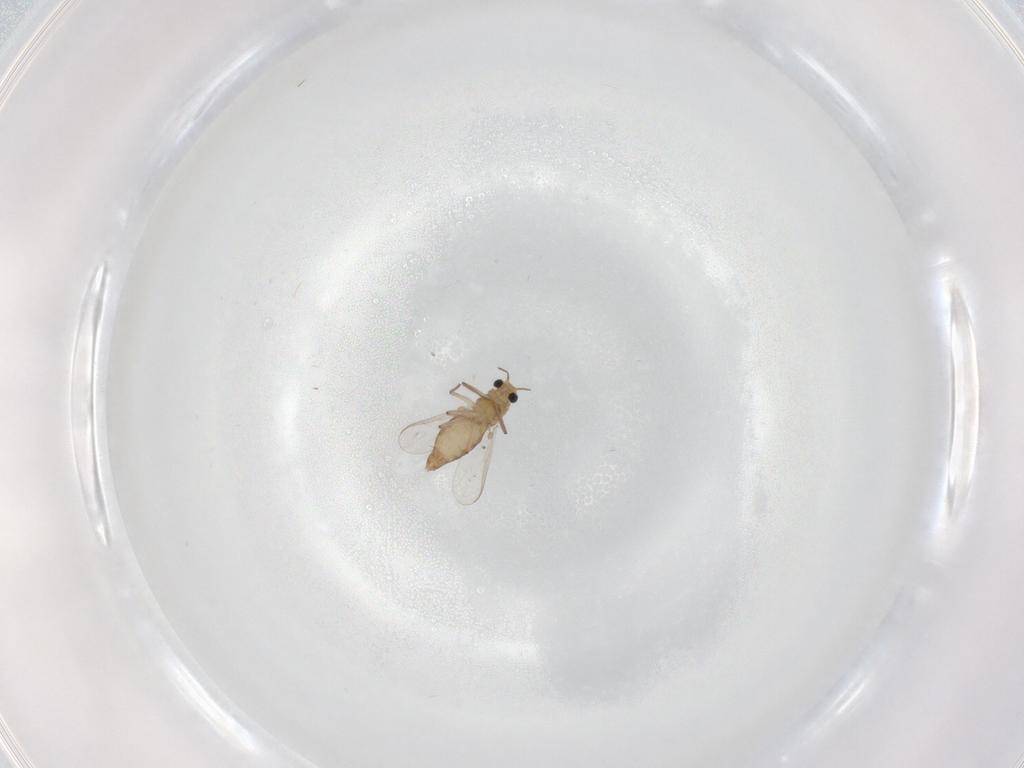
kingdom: Animalia
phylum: Arthropoda
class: Insecta
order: Diptera
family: Chironomidae
